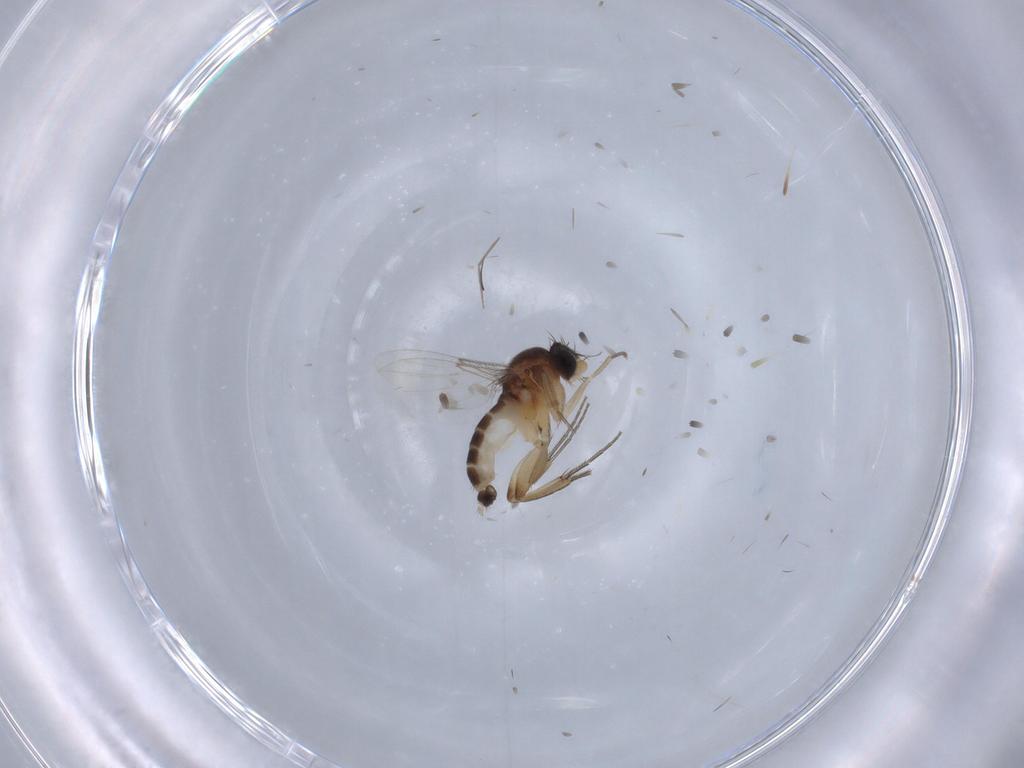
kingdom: Animalia
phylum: Arthropoda
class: Insecta
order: Diptera
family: Phoridae
